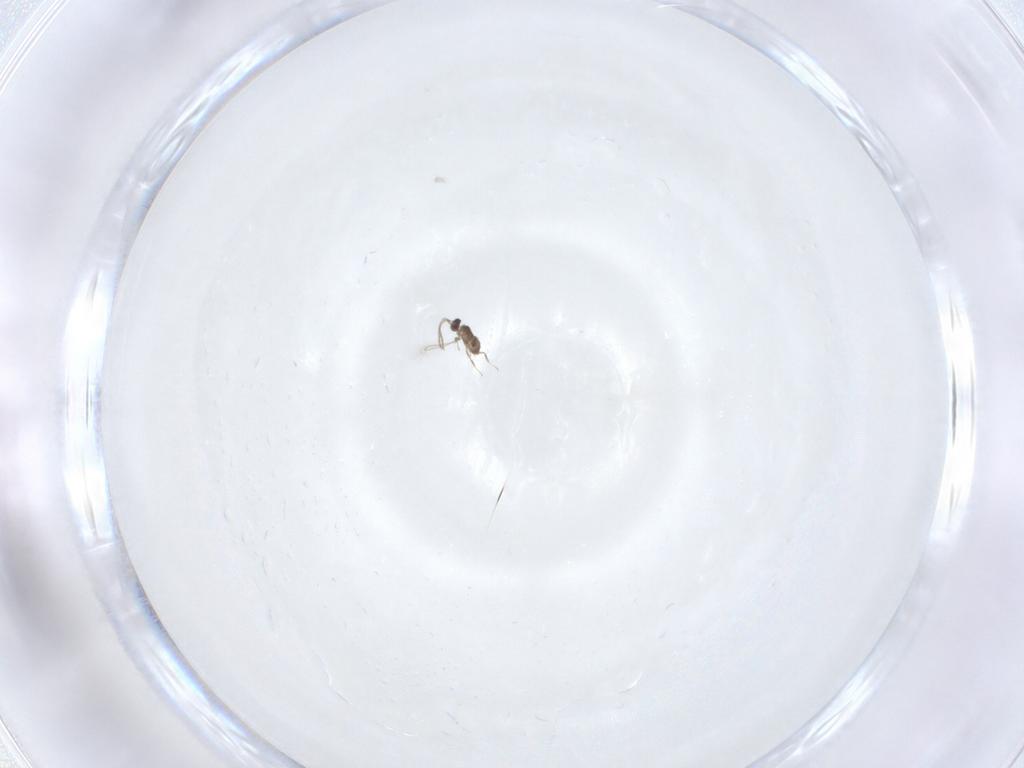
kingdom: Animalia
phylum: Arthropoda
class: Insecta
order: Hymenoptera
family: Mymaridae
